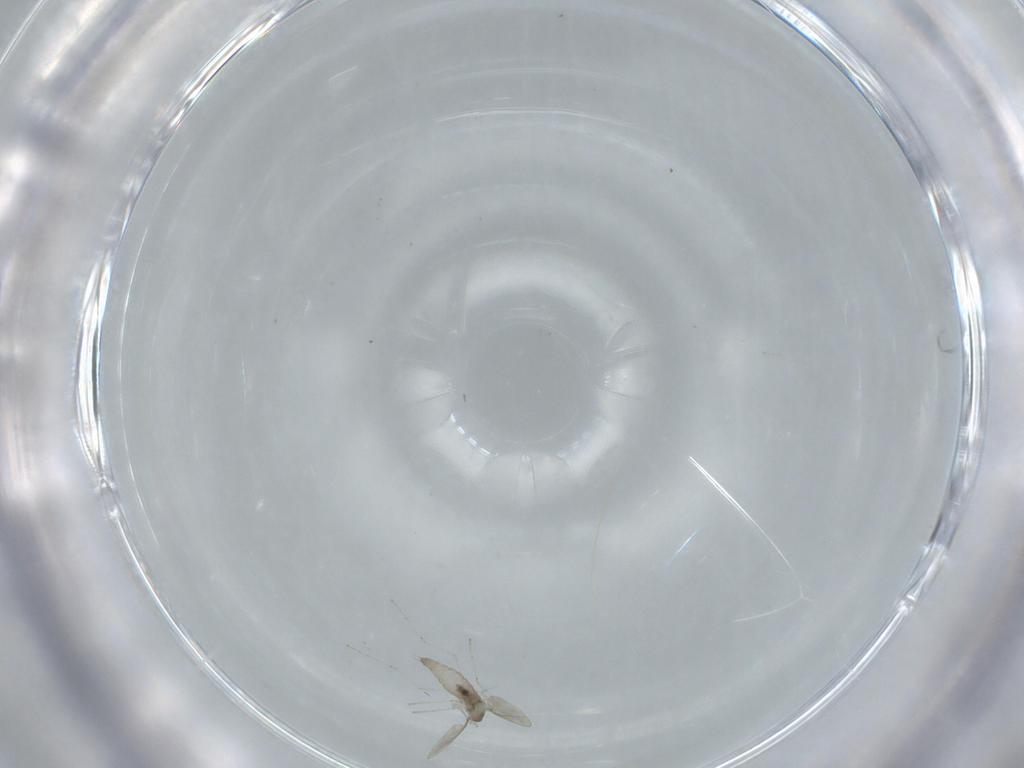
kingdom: Animalia
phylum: Arthropoda
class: Insecta
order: Diptera
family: Cecidomyiidae
